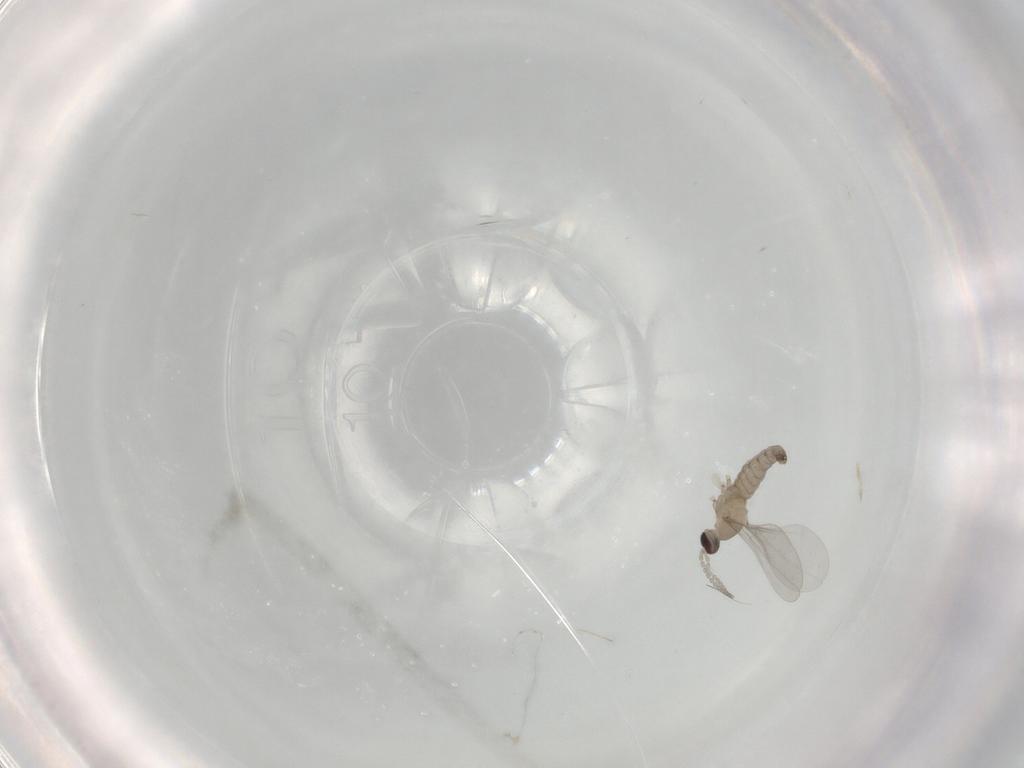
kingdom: Animalia
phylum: Arthropoda
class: Insecta
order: Diptera
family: Cecidomyiidae
